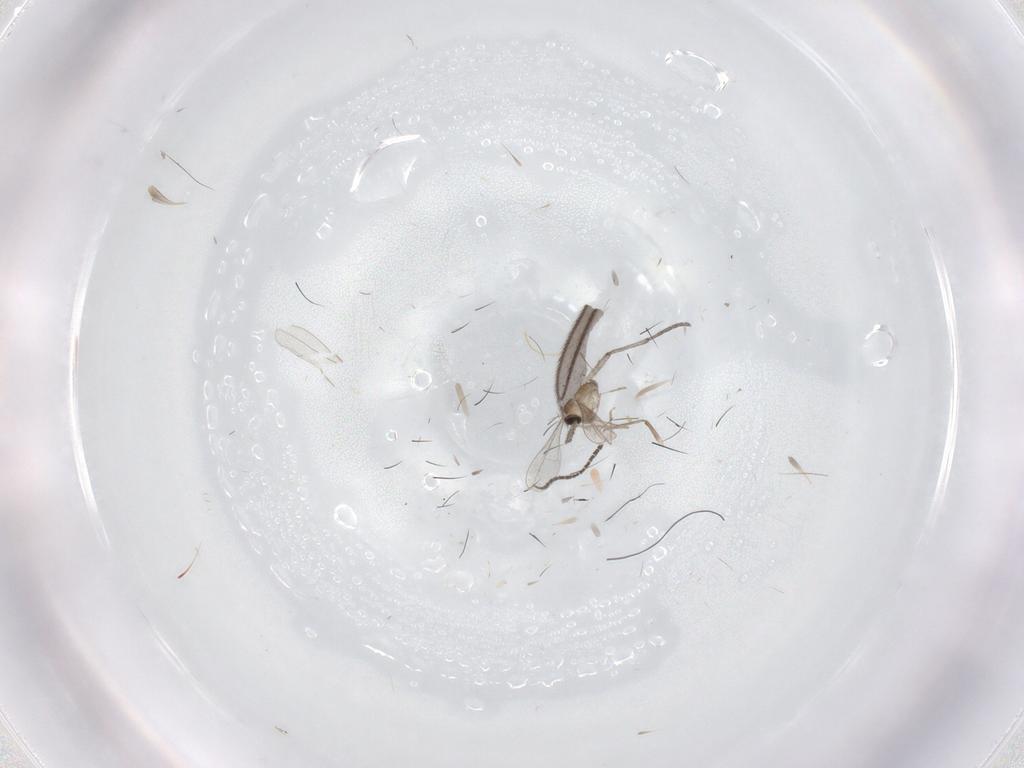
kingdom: Animalia
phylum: Arthropoda
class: Insecta
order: Diptera
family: Cecidomyiidae
